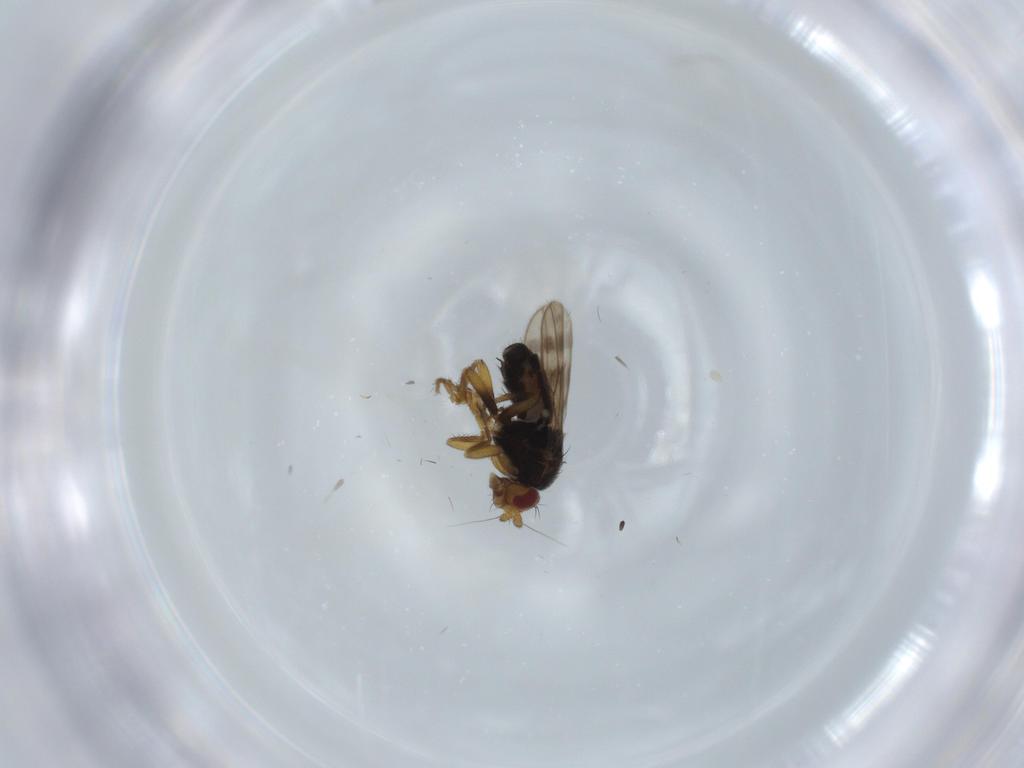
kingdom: Animalia
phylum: Arthropoda
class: Insecta
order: Diptera
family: Sphaeroceridae
